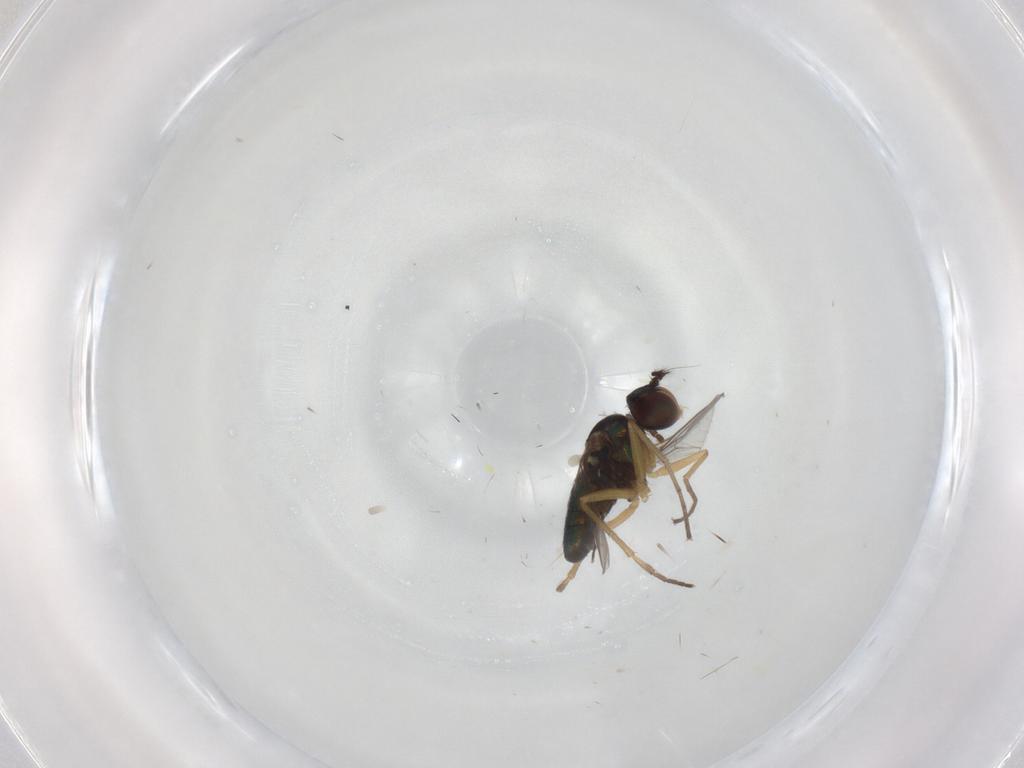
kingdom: Animalia
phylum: Arthropoda
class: Insecta
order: Diptera
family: Dolichopodidae
